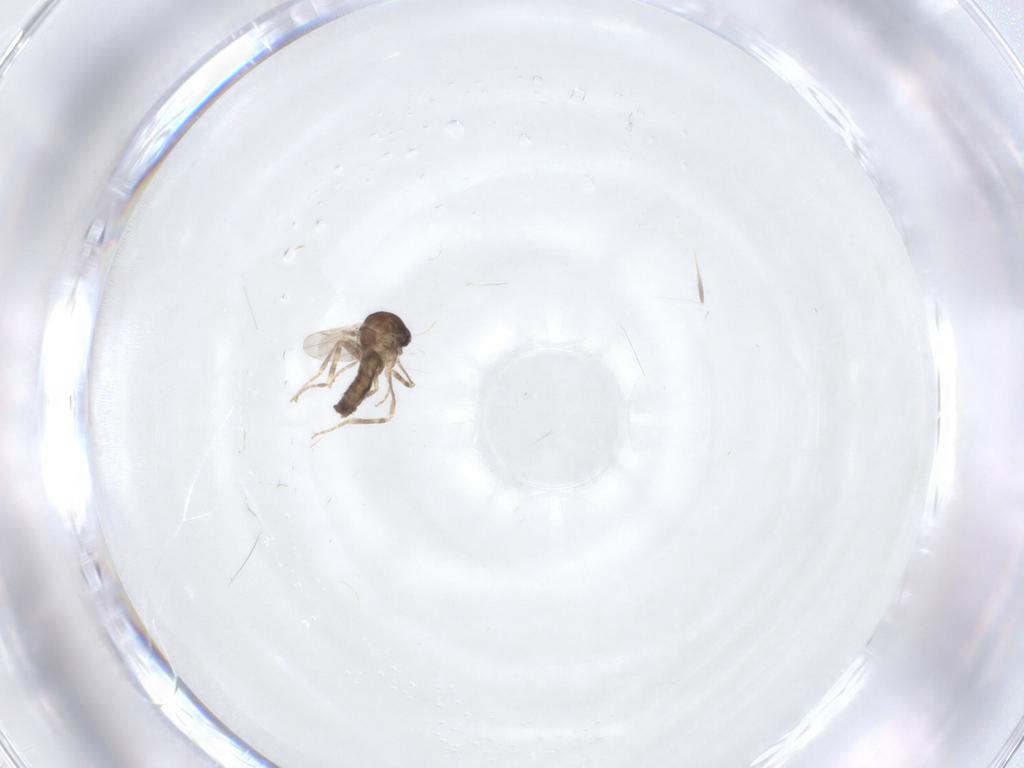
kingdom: Animalia
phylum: Arthropoda
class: Insecta
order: Diptera
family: Ceratopogonidae
